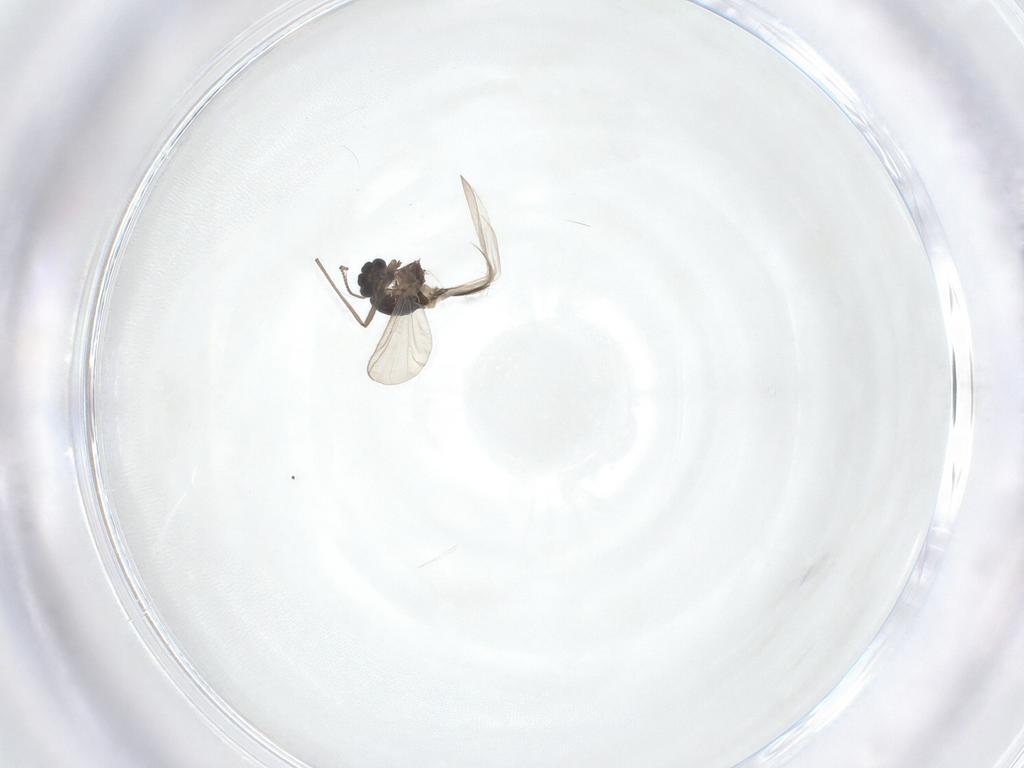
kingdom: Animalia
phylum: Arthropoda
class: Insecta
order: Diptera
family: Chironomidae
